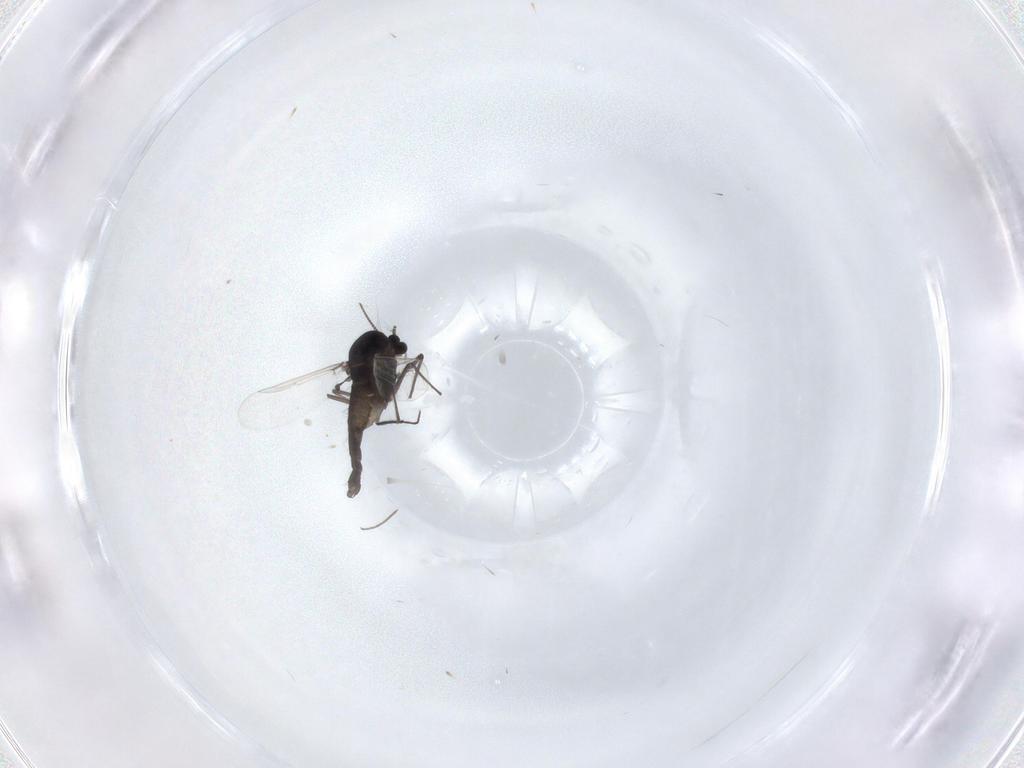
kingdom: Animalia
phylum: Arthropoda
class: Insecta
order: Diptera
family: Chironomidae
